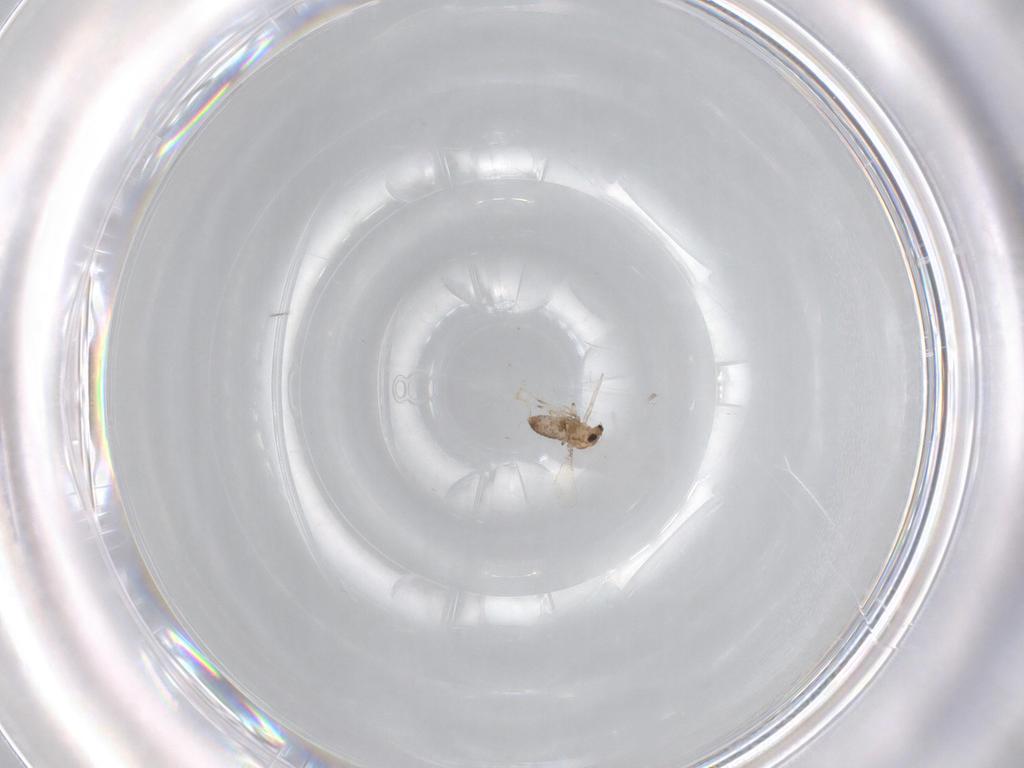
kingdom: Animalia
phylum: Arthropoda
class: Insecta
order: Diptera
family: Chironomidae
